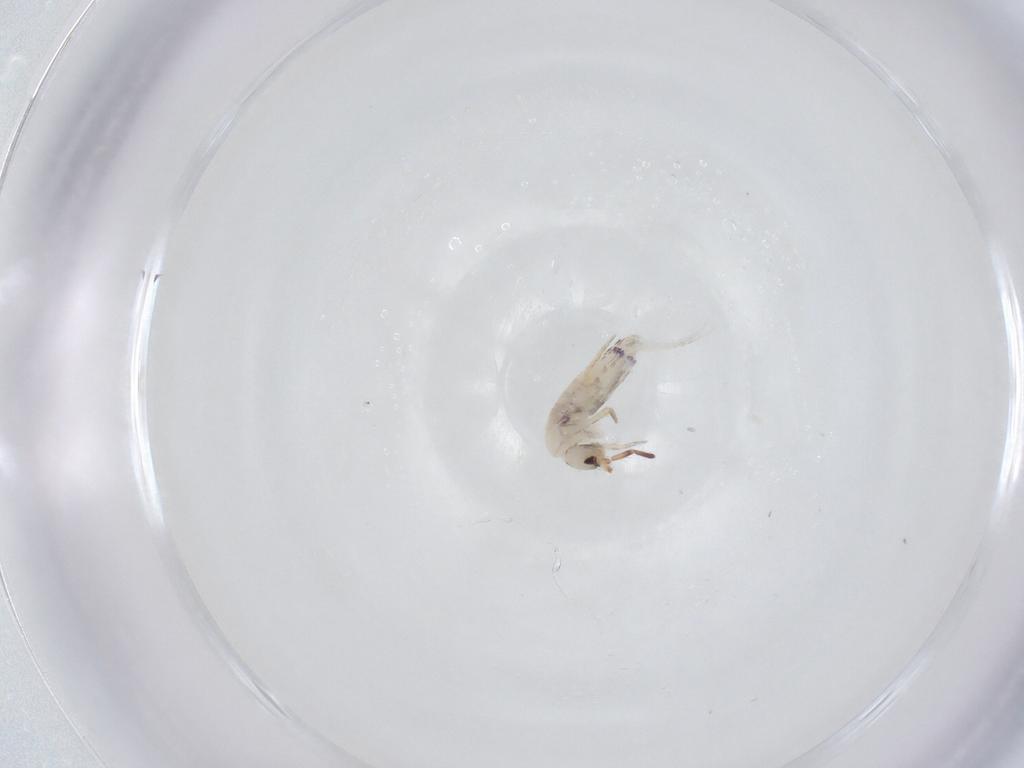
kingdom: Animalia
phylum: Arthropoda
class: Collembola
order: Entomobryomorpha
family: Entomobryidae
